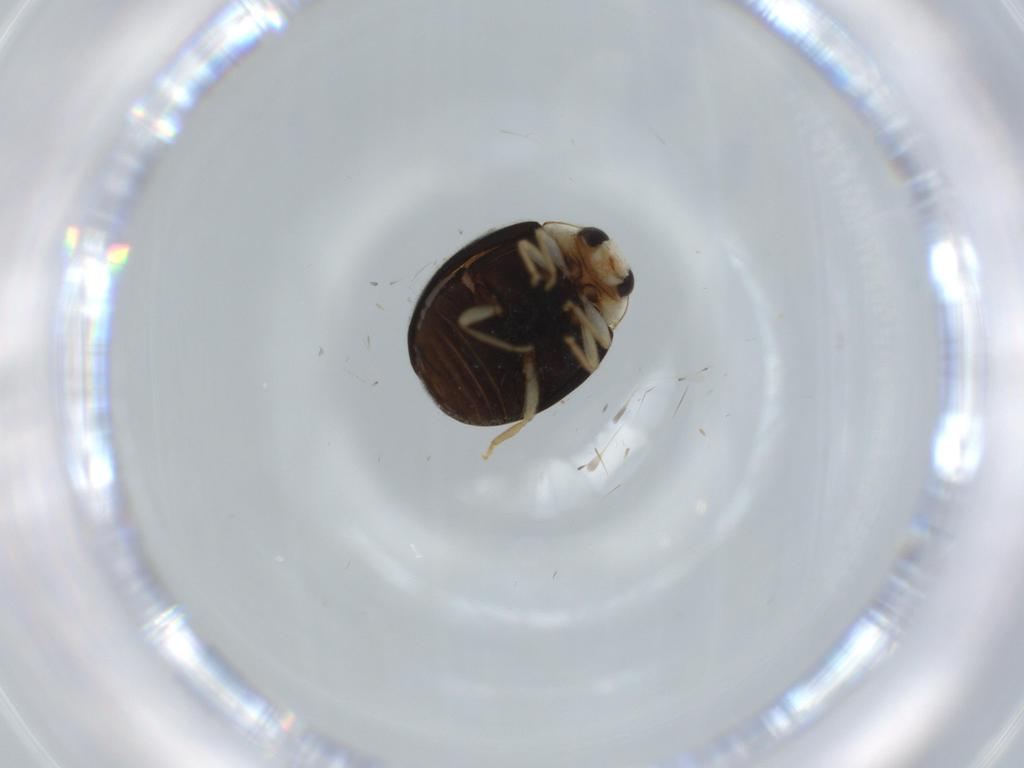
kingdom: Animalia
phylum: Arthropoda
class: Insecta
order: Coleoptera
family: Coccinellidae
